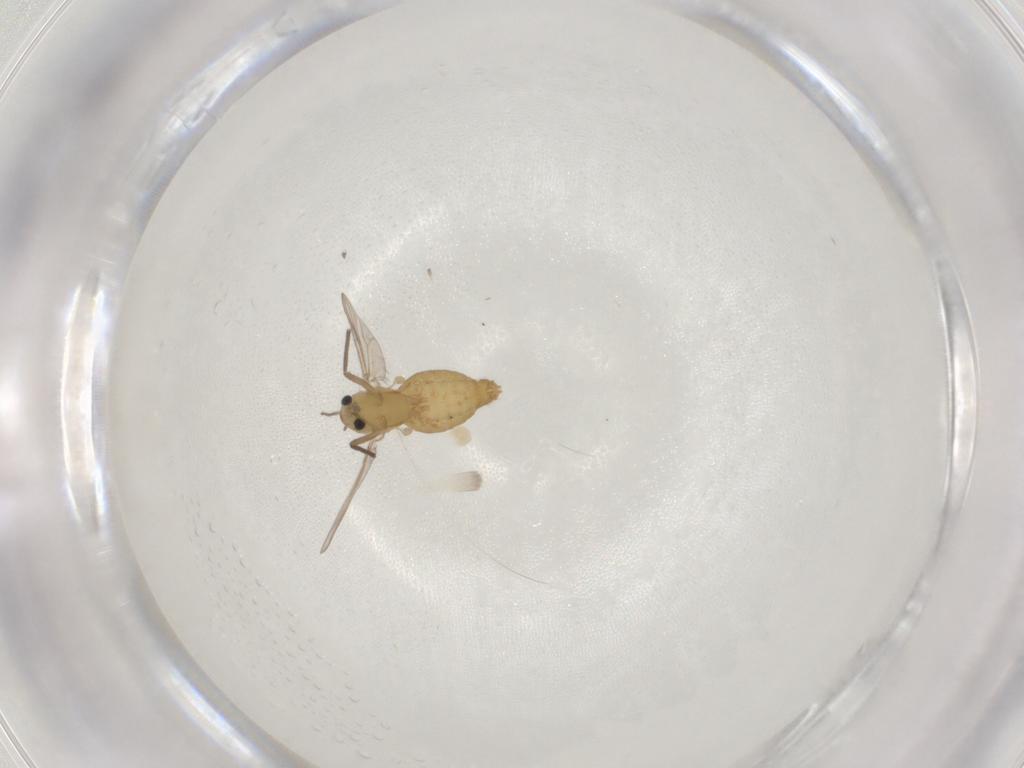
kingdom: Animalia
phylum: Arthropoda
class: Insecta
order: Diptera
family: Chironomidae
